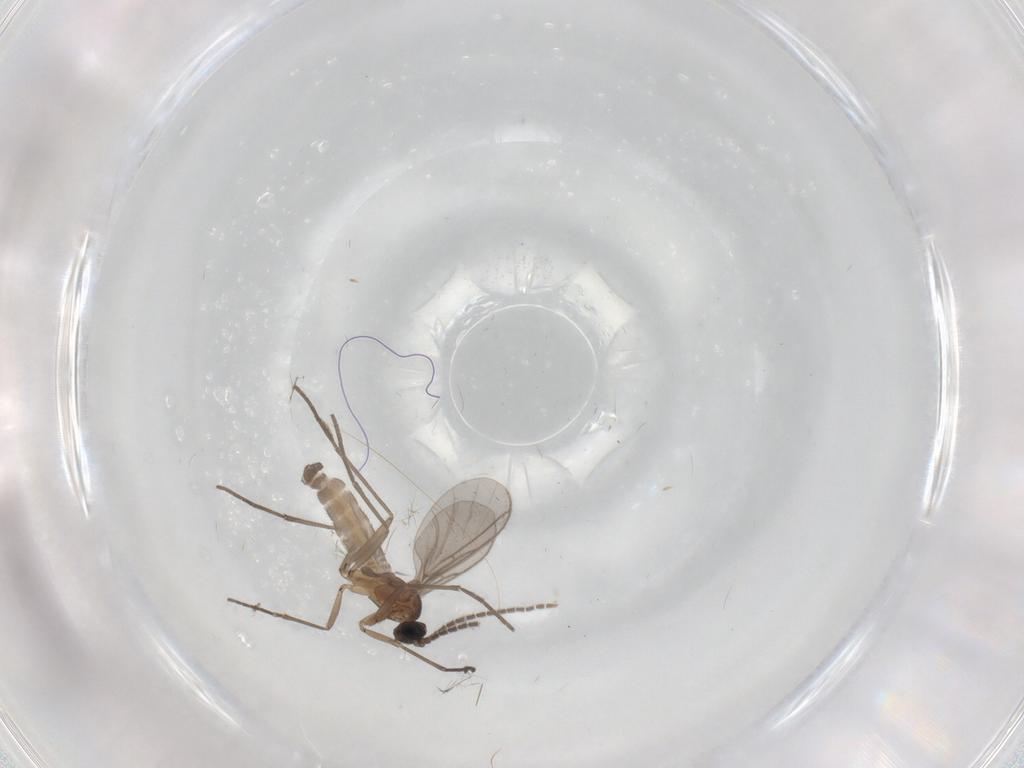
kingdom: Animalia
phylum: Arthropoda
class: Insecta
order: Diptera
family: Sciaridae
